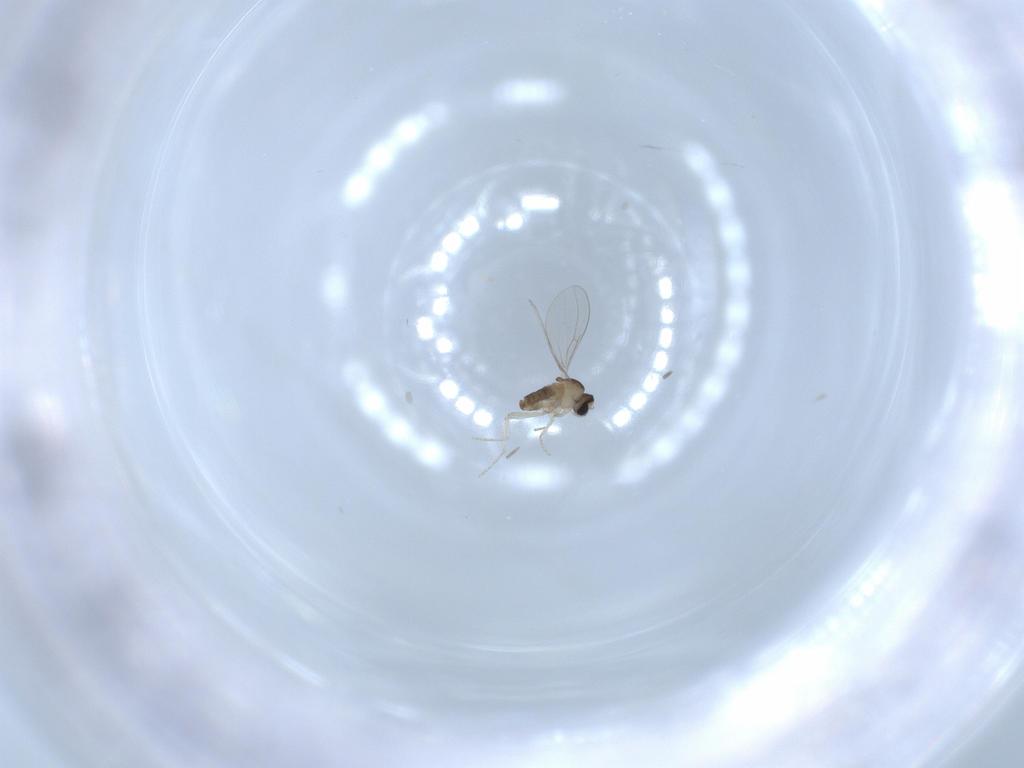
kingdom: Animalia
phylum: Arthropoda
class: Insecta
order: Diptera
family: Cecidomyiidae
